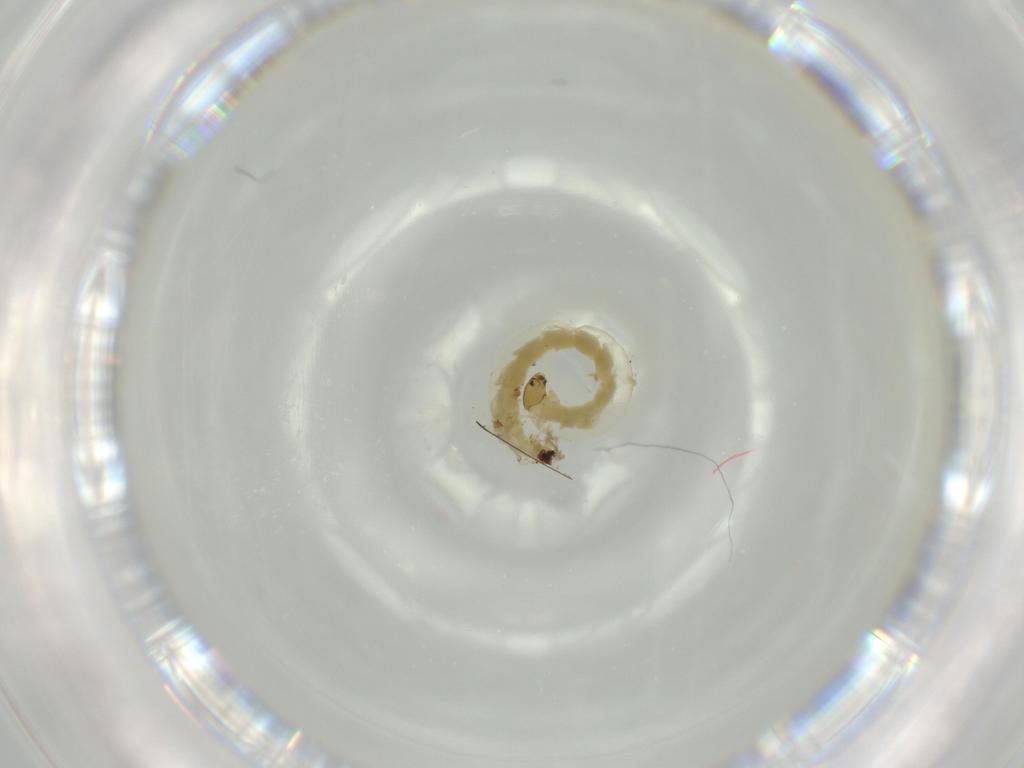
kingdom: Animalia
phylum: Arthropoda
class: Insecta
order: Diptera
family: Chironomidae
